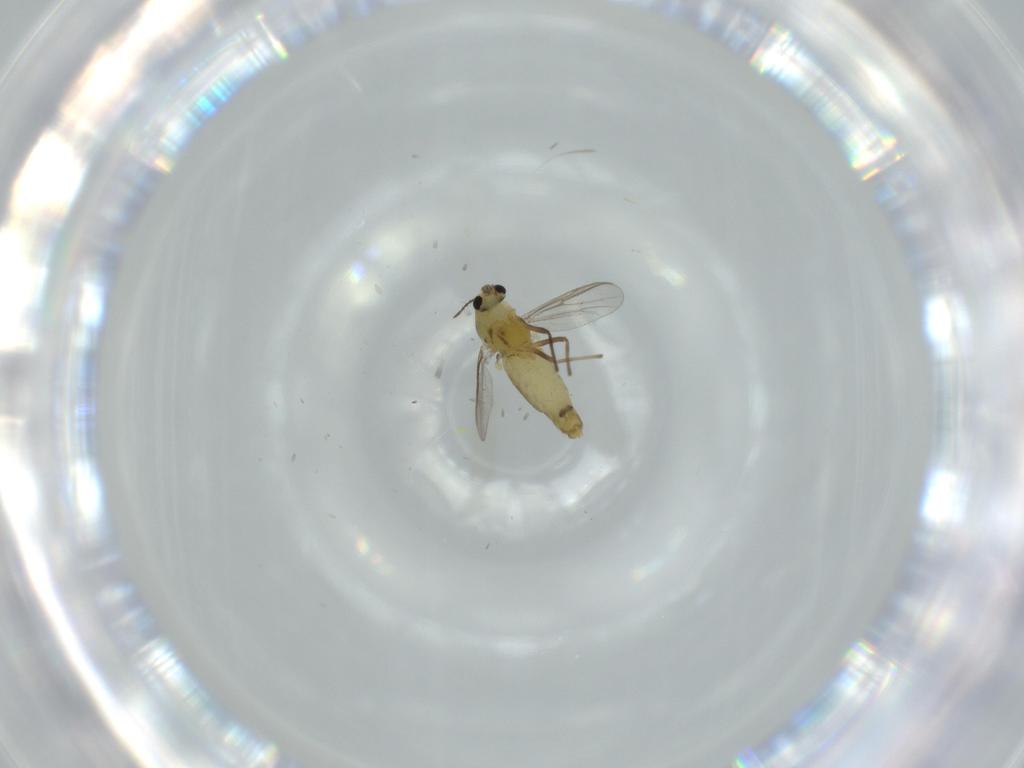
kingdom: Animalia
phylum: Arthropoda
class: Insecta
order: Diptera
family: Chironomidae
